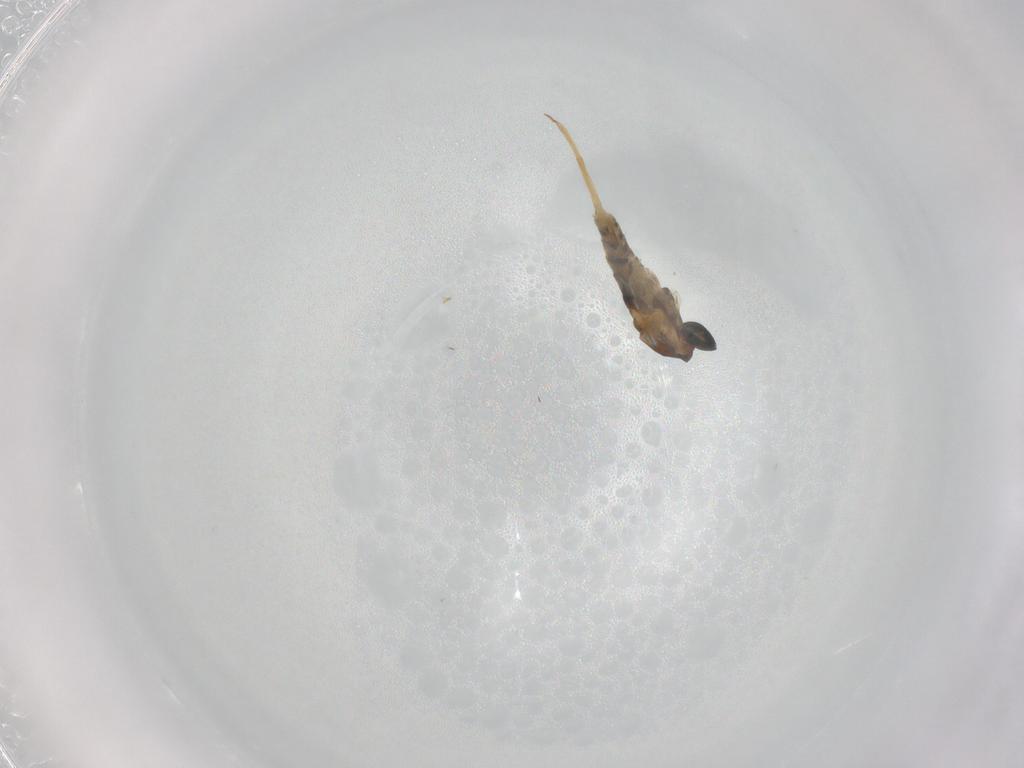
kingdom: Animalia
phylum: Arthropoda
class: Insecta
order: Diptera
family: Cecidomyiidae
